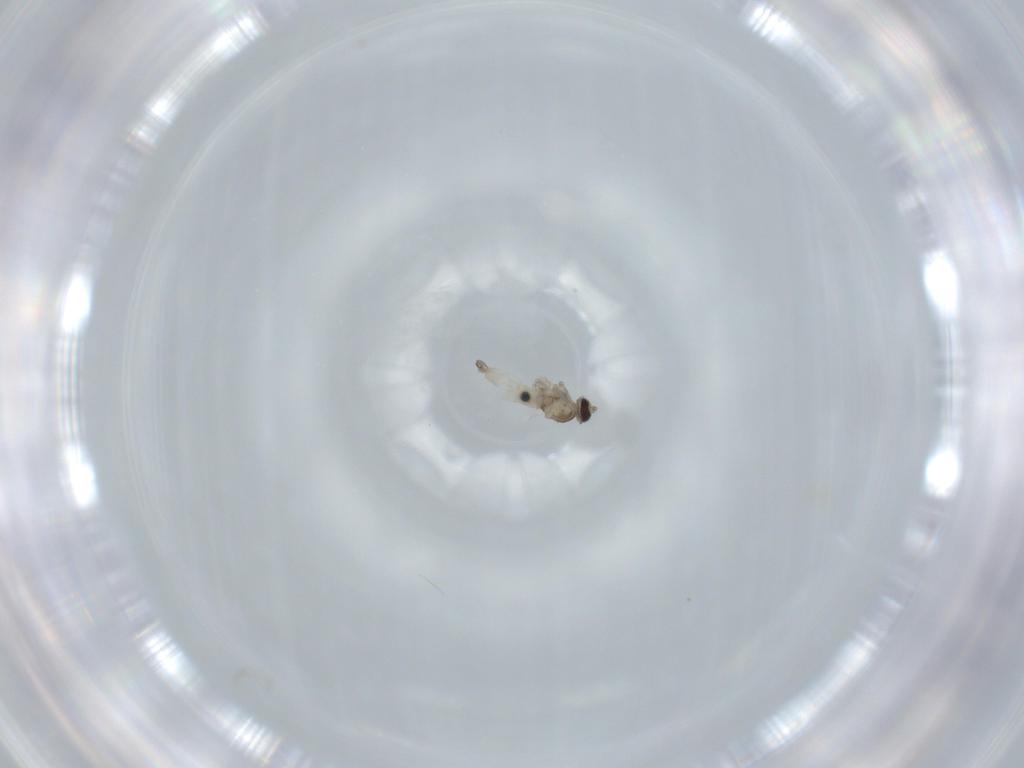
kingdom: Animalia
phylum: Arthropoda
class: Insecta
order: Diptera
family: Cecidomyiidae
